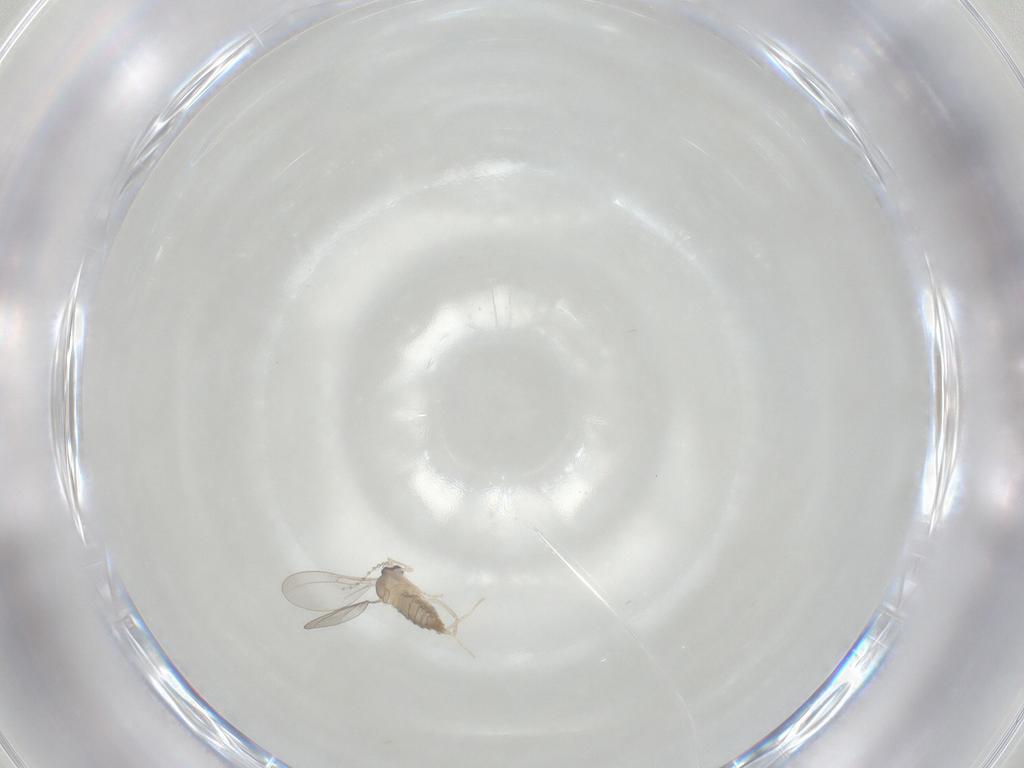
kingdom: Animalia
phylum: Arthropoda
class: Insecta
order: Diptera
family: Cecidomyiidae
